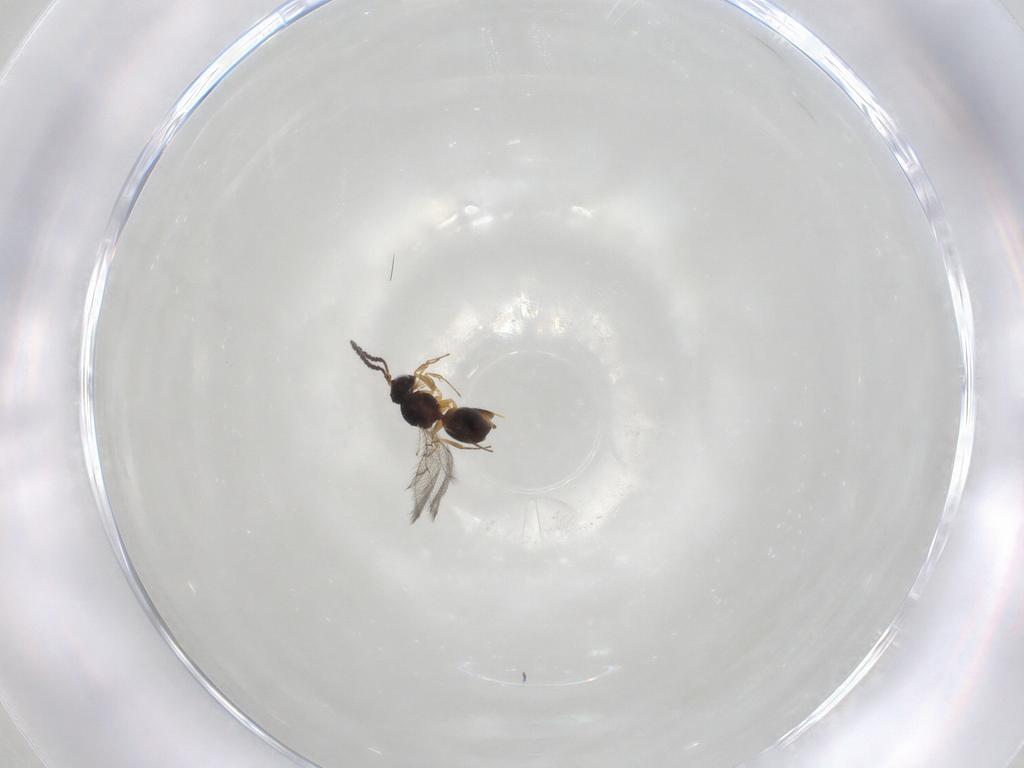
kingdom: Animalia
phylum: Arthropoda
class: Insecta
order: Hymenoptera
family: Figitidae
